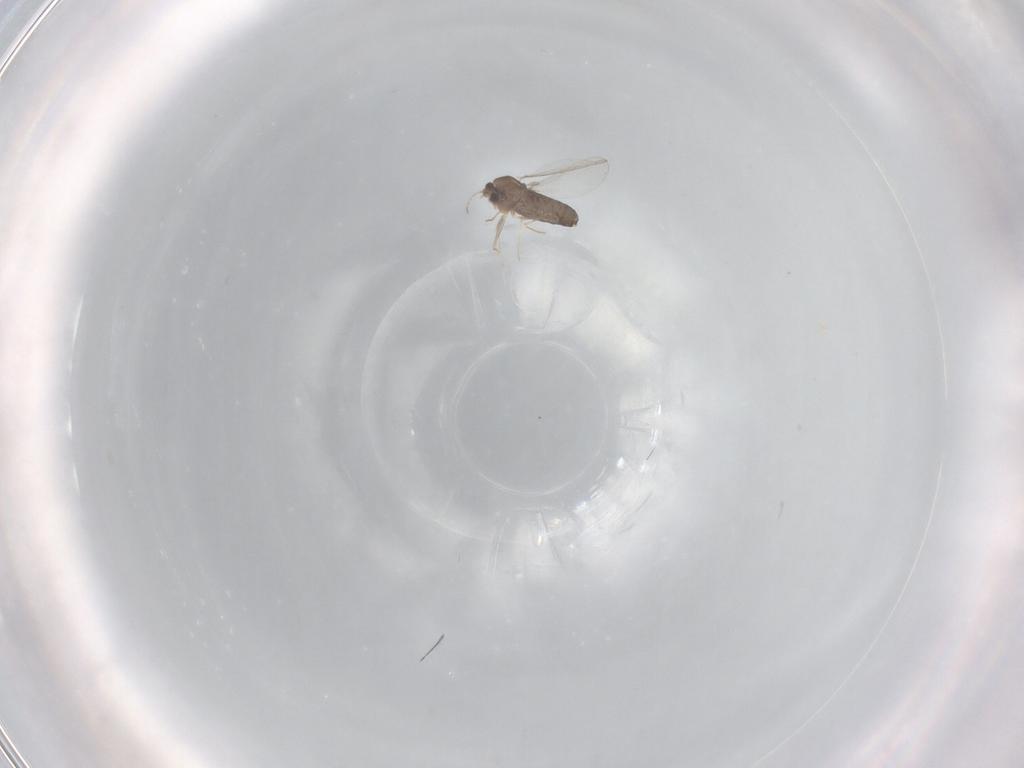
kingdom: Animalia
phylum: Arthropoda
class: Insecta
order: Diptera
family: Chironomidae
